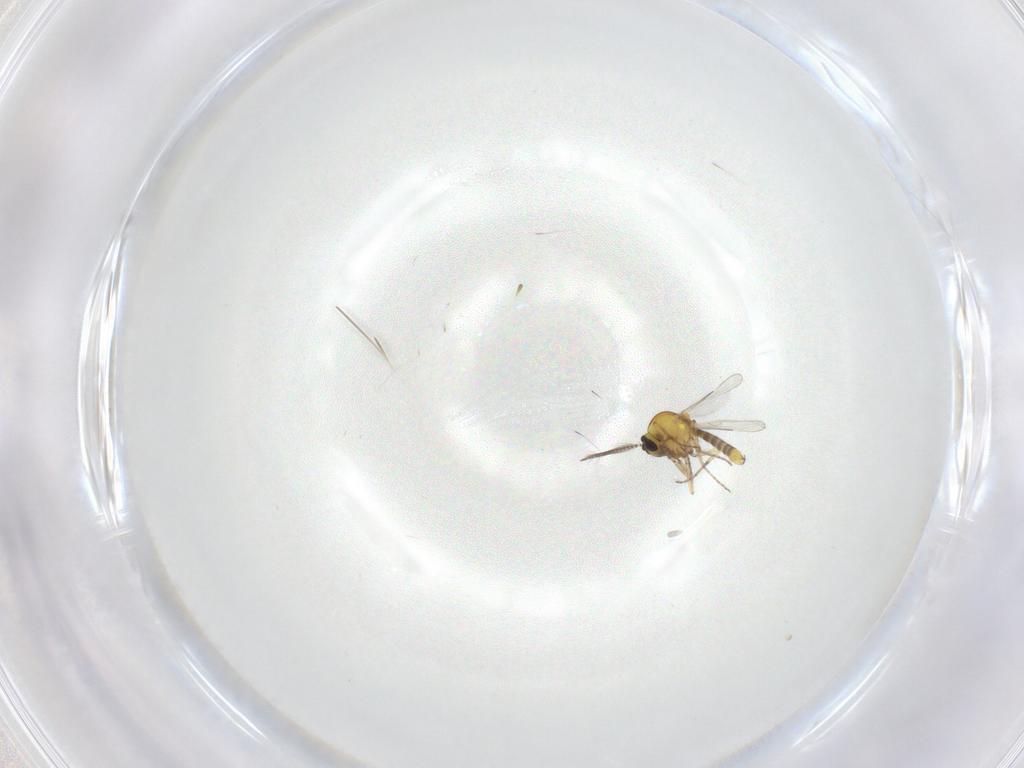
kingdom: Animalia
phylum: Arthropoda
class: Insecta
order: Diptera
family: Ceratopogonidae
